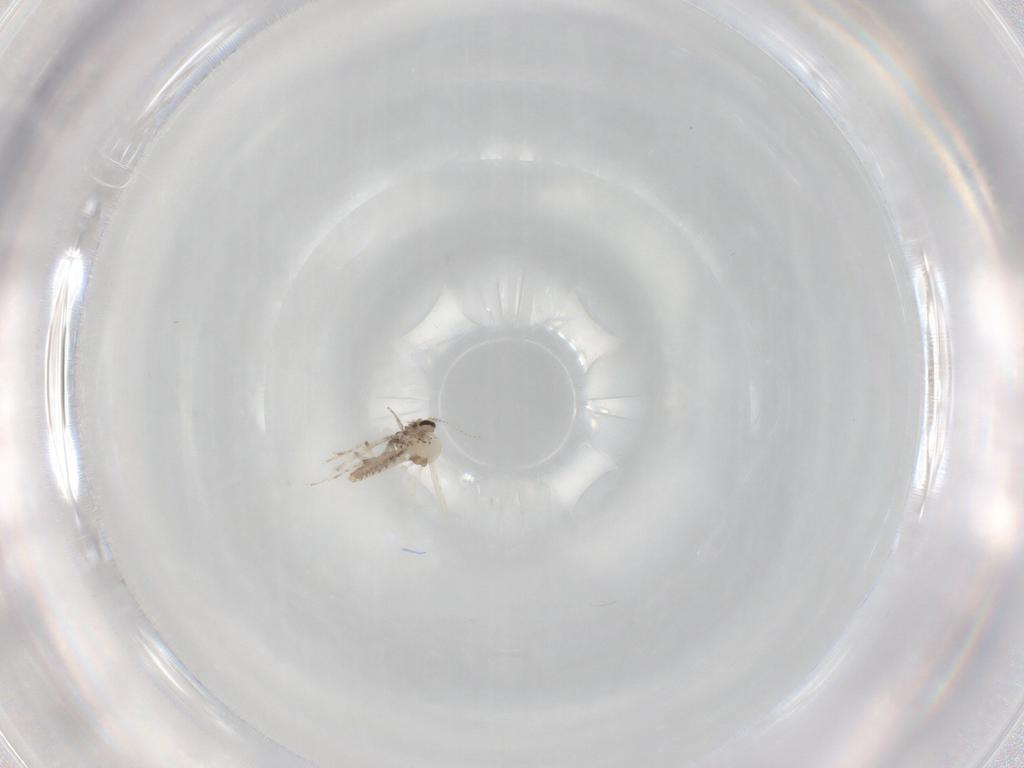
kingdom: Animalia
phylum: Arthropoda
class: Insecta
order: Diptera
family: Ceratopogonidae
